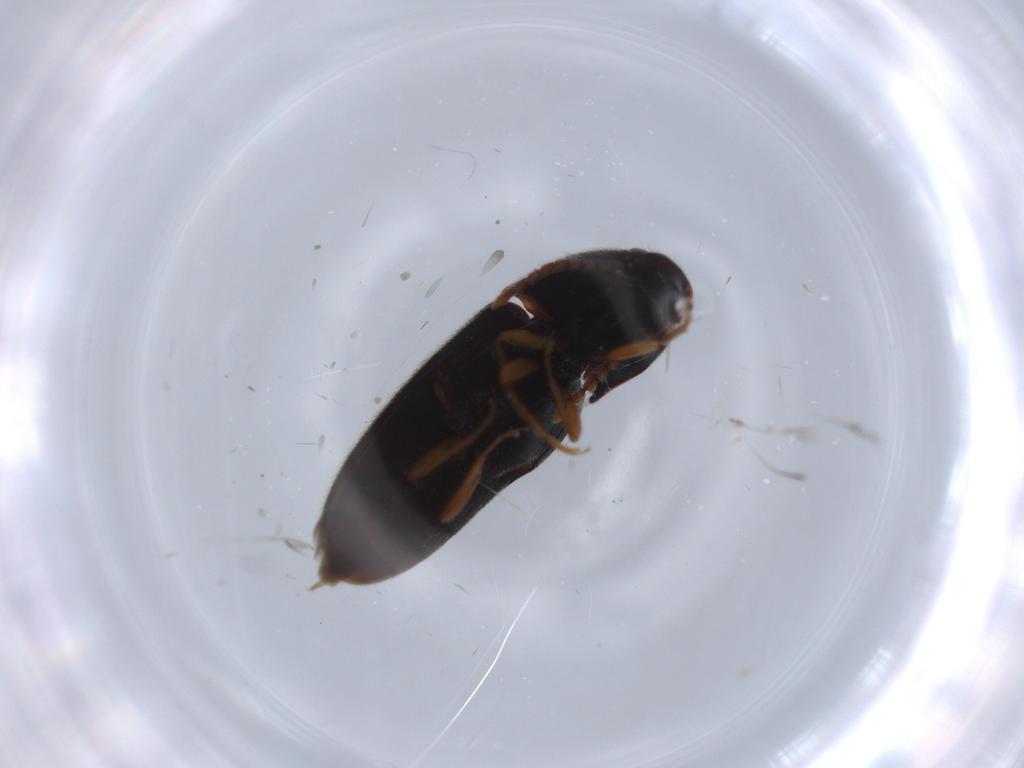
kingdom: Animalia
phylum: Arthropoda
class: Insecta
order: Coleoptera
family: Elateridae
